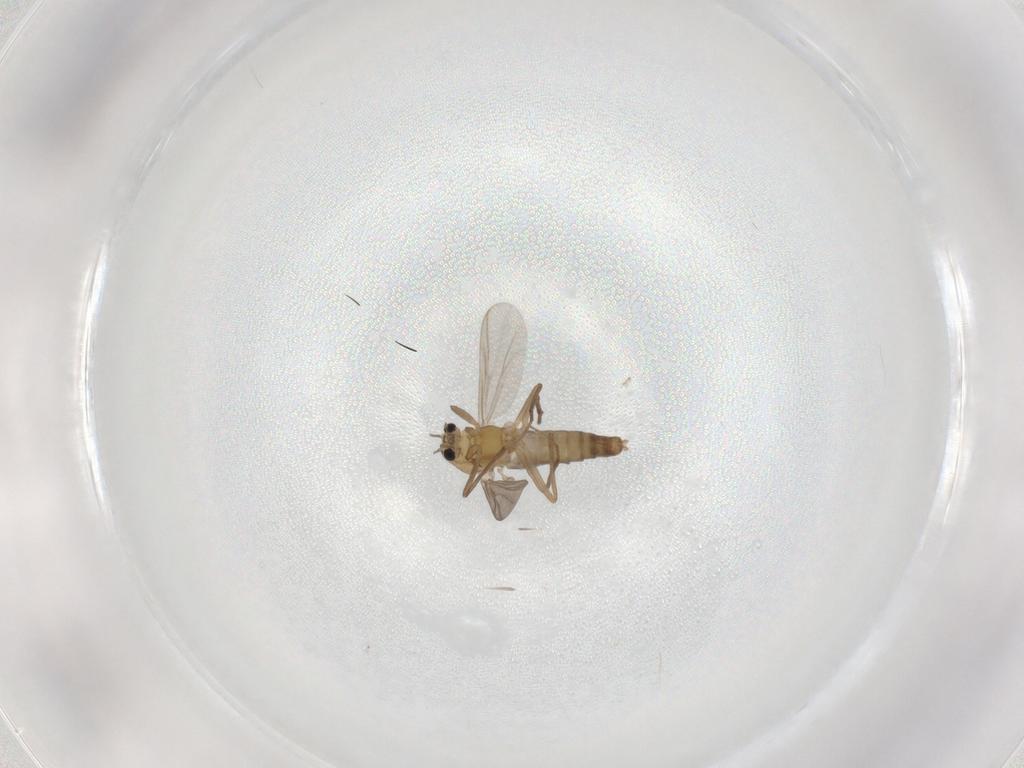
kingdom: Animalia
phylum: Arthropoda
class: Insecta
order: Diptera
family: Chironomidae
